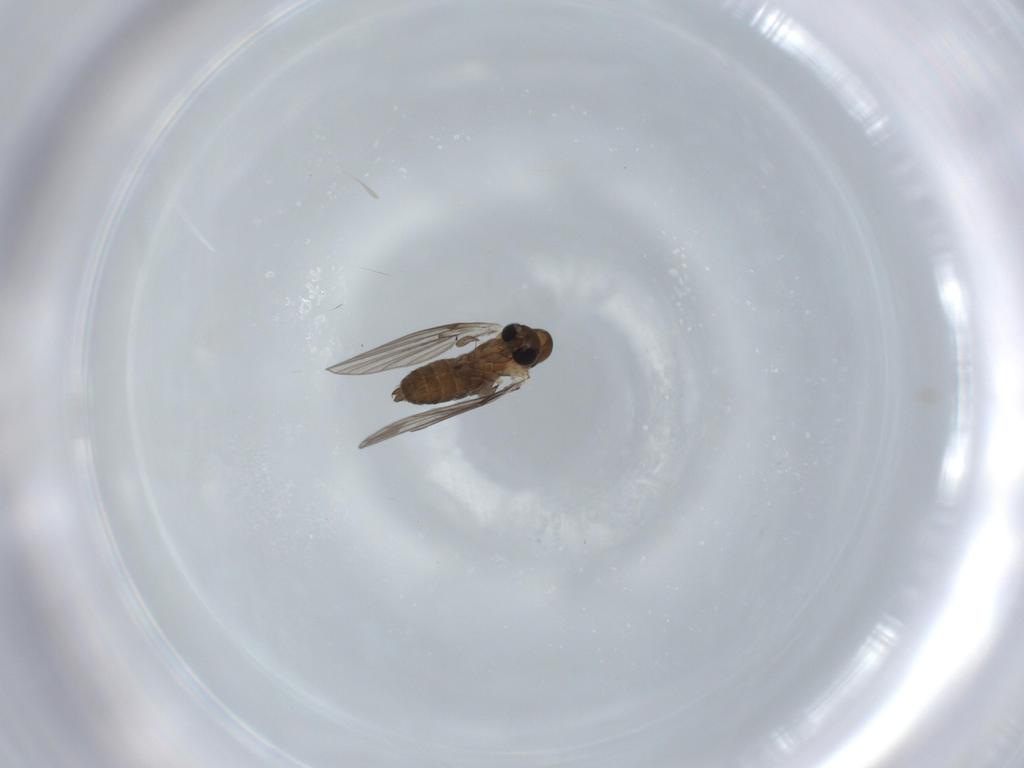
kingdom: Animalia
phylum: Arthropoda
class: Insecta
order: Diptera
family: Psychodidae
